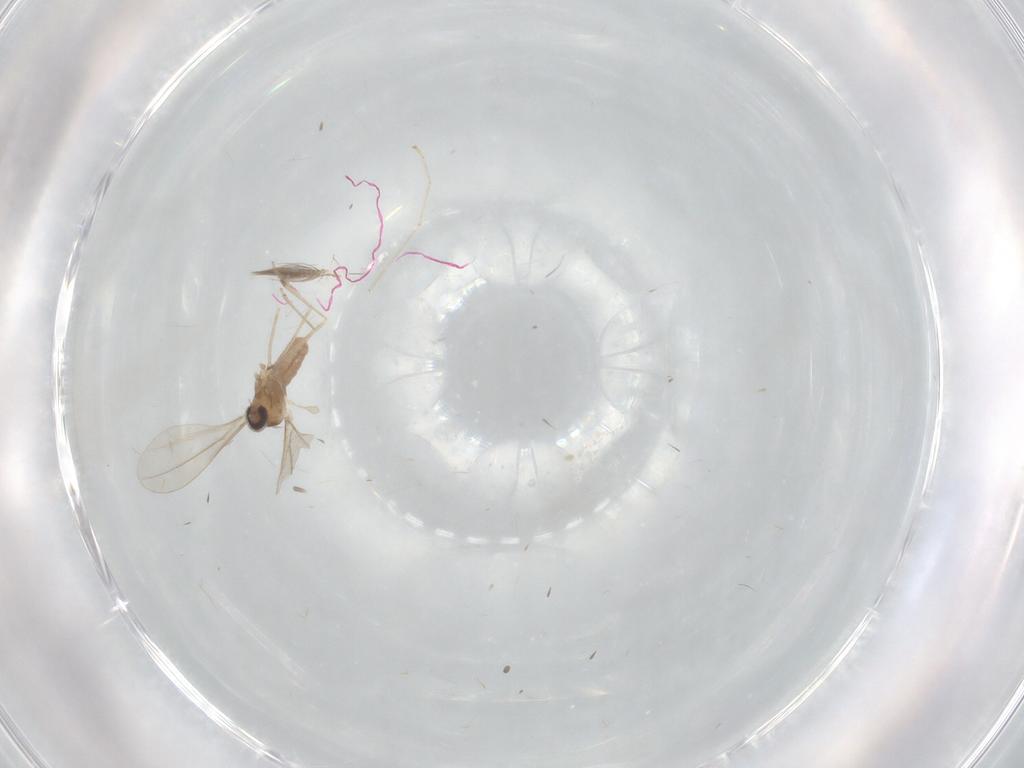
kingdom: Animalia
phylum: Arthropoda
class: Insecta
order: Diptera
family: Cecidomyiidae
